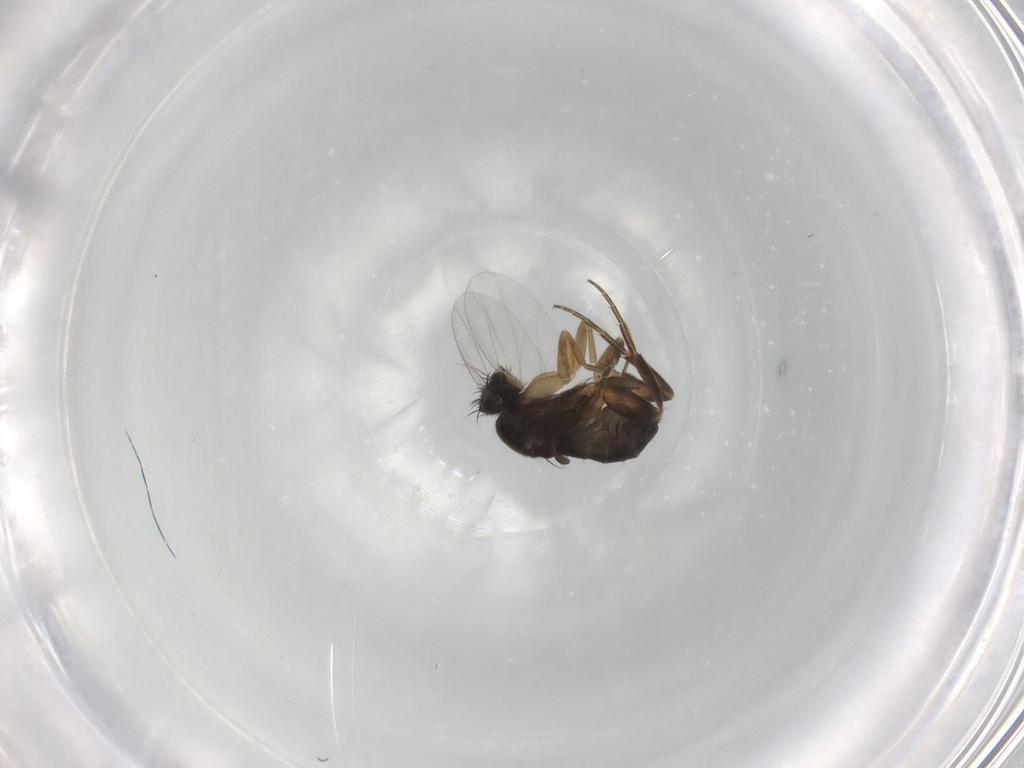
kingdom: Animalia
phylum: Arthropoda
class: Insecta
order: Diptera
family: Phoridae
